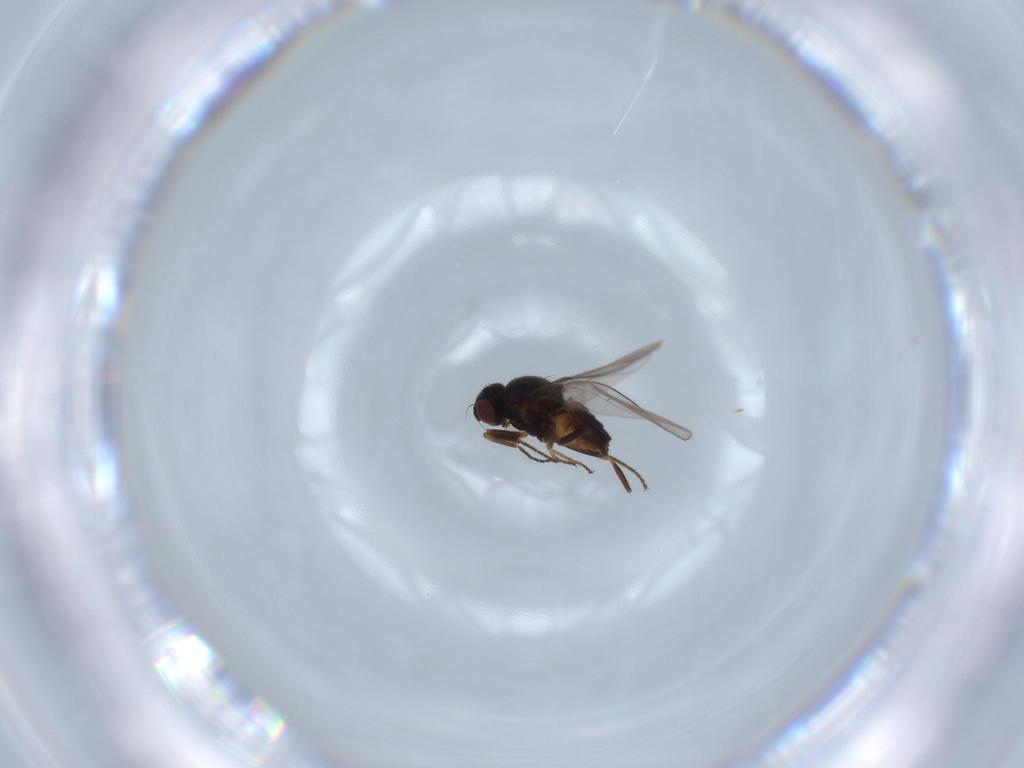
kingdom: Animalia
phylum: Arthropoda
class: Insecta
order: Diptera
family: Chloropidae
